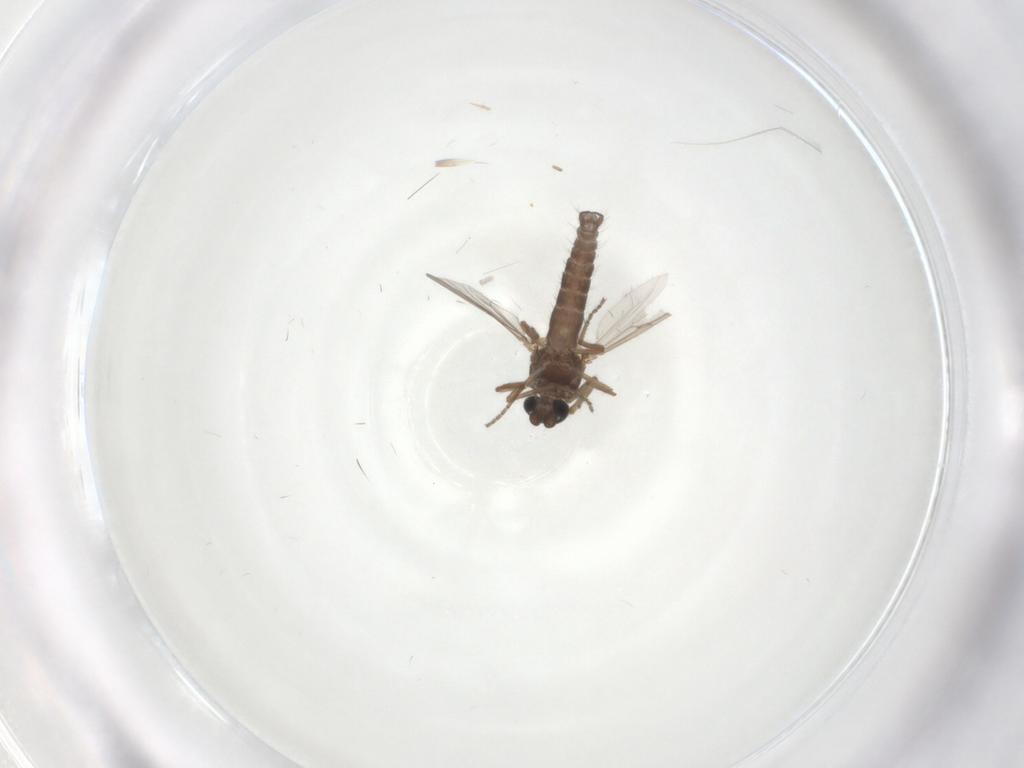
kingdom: Animalia
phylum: Arthropoda
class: Insecta
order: Diptera
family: Ceratopogonidae
